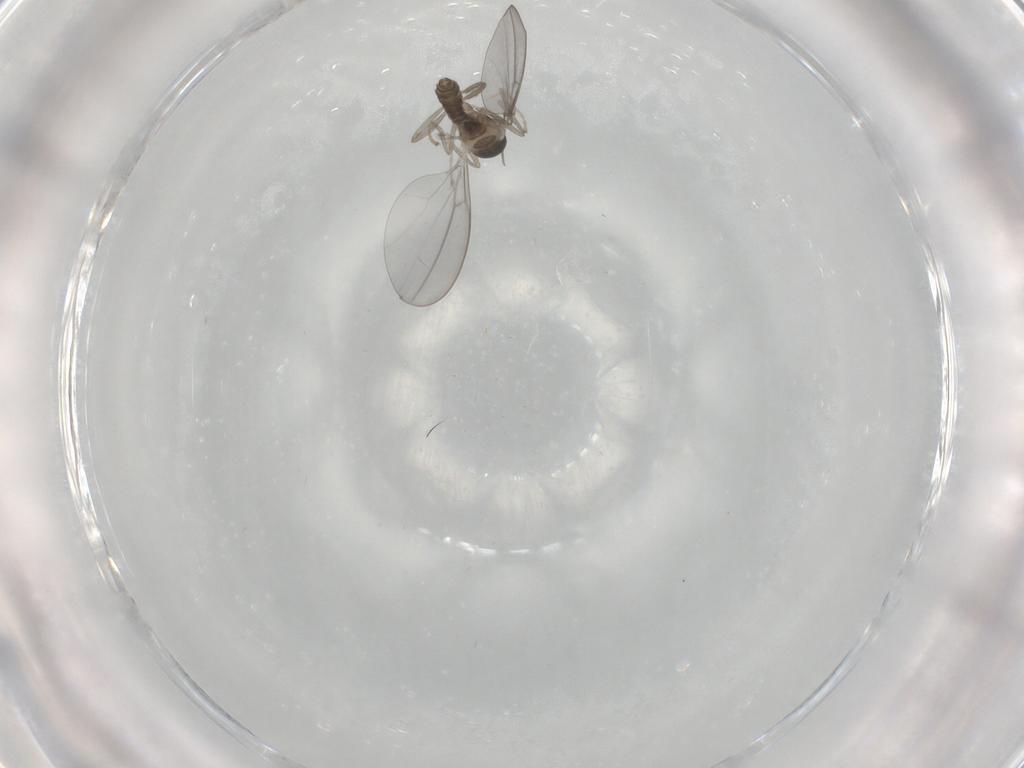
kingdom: Animalia
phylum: Arthropoda
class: Insecta
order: Diptera
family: Cecidomyiidae
